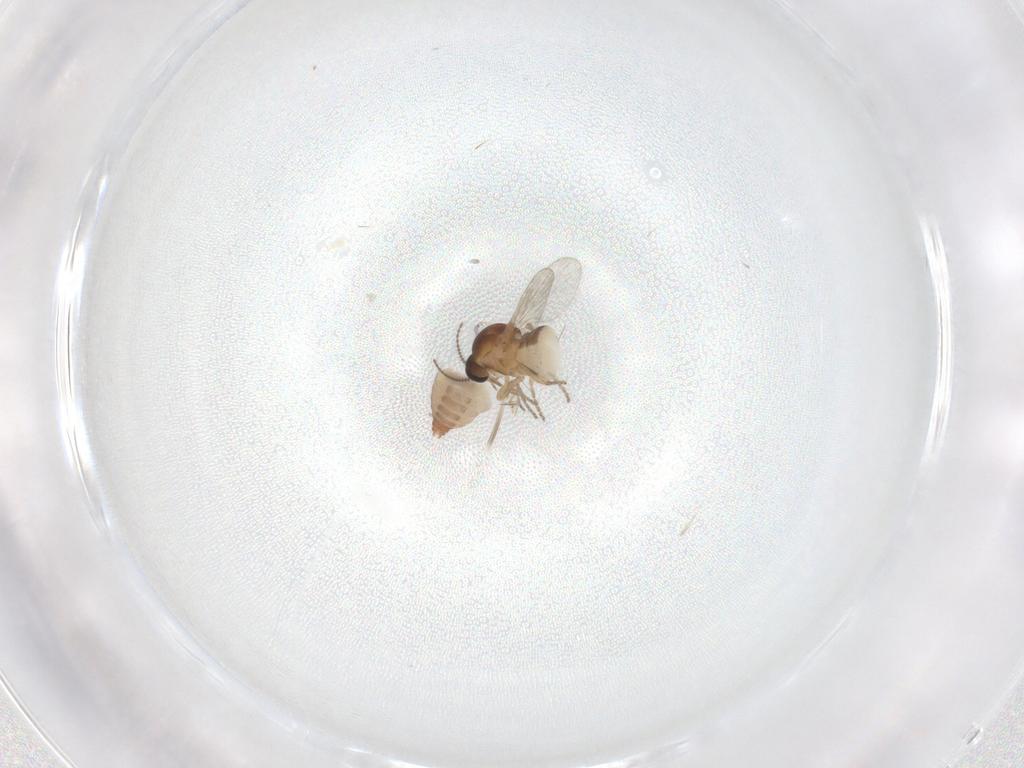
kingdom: Animalia
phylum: Arthropoda
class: Insecta
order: Diptera
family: Ceratopogonidae
